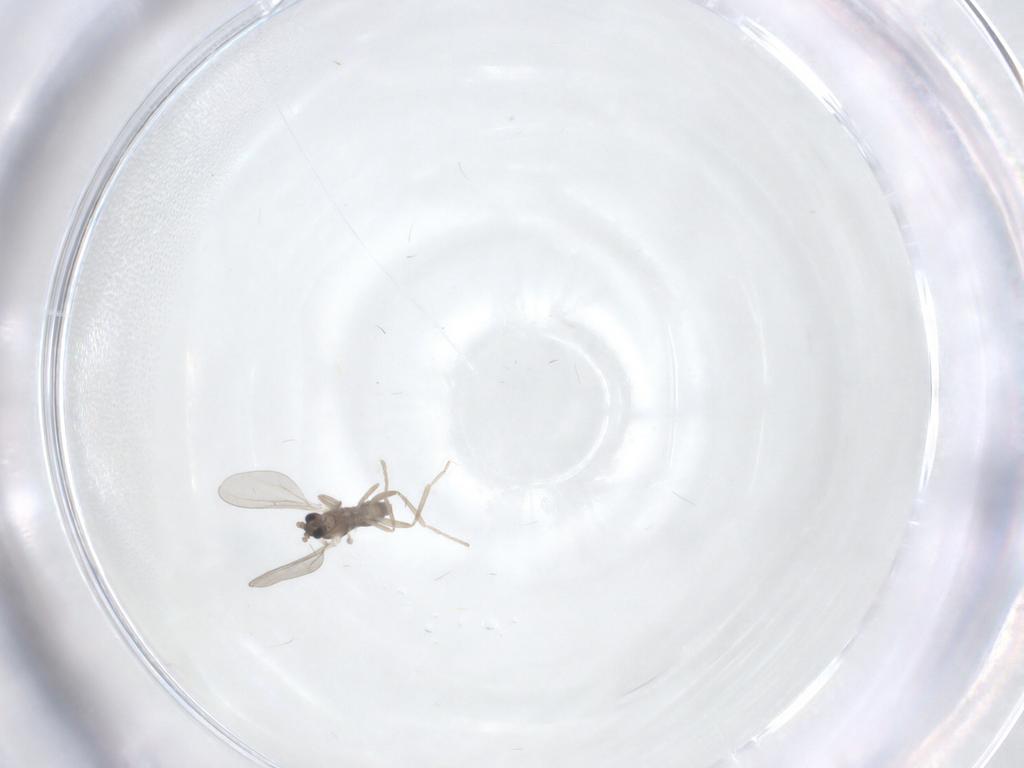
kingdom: Animalia
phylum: Arthropoda
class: Insecta
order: Diptera
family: Cecidomyiidae
